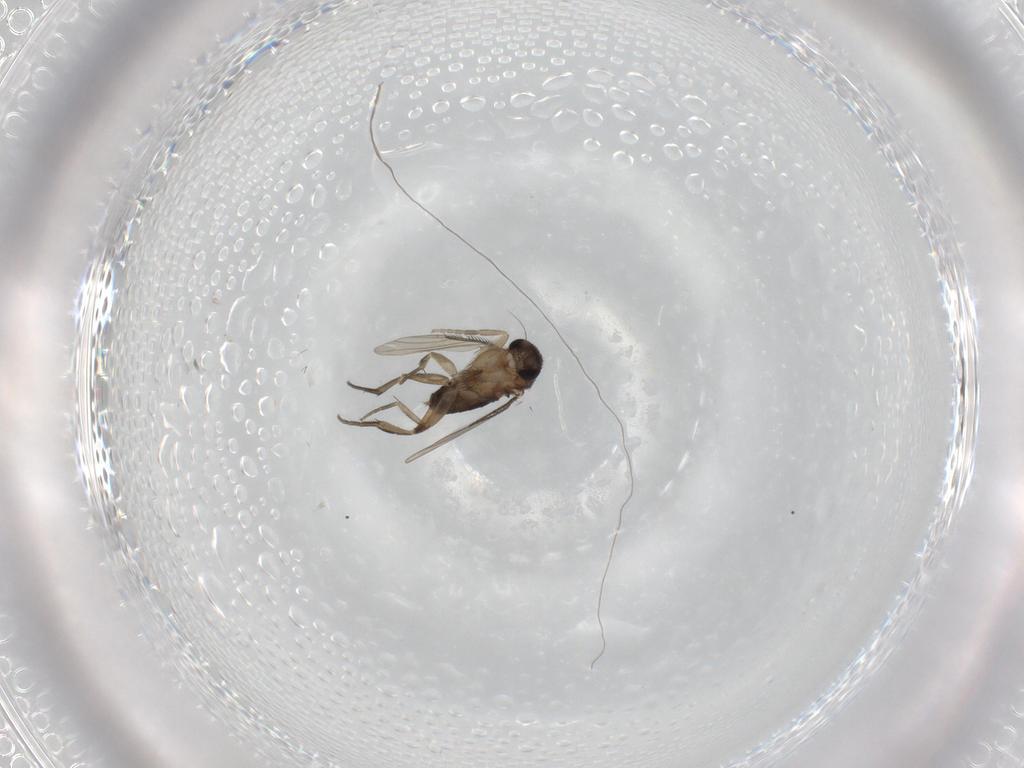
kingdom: Animalia
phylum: Arthropoda
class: Insecta
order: Diptera
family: Phoridae
